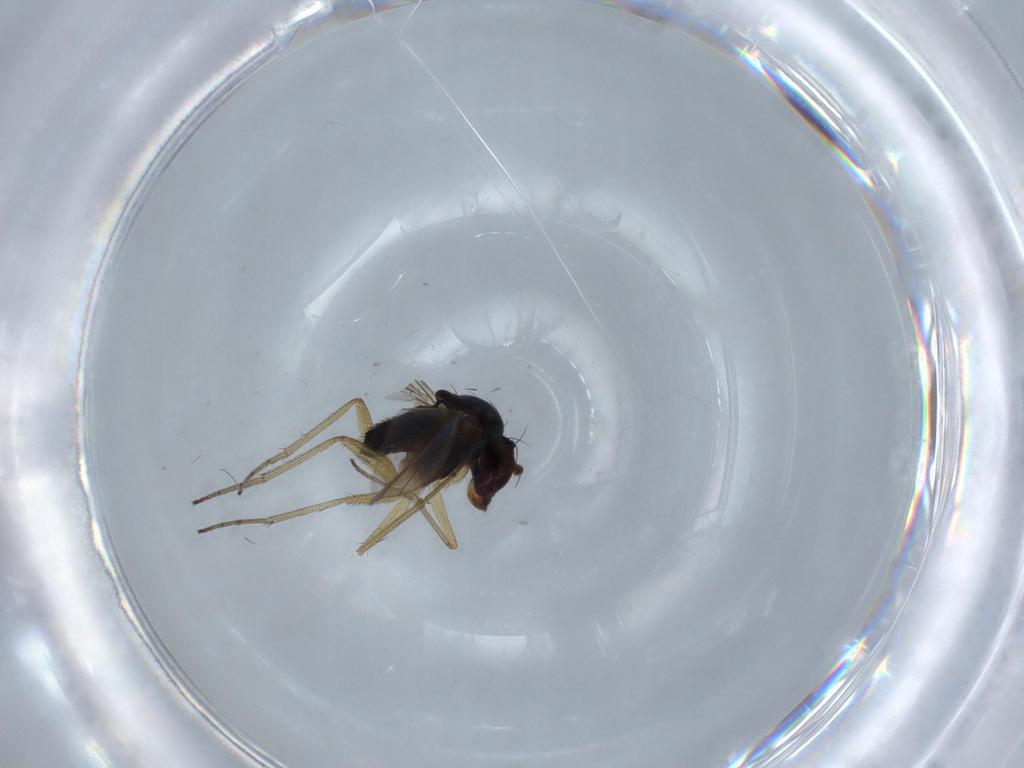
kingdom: Animalia
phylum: Arthropoda
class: Insecta
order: Diptera
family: Dolichopodidae
